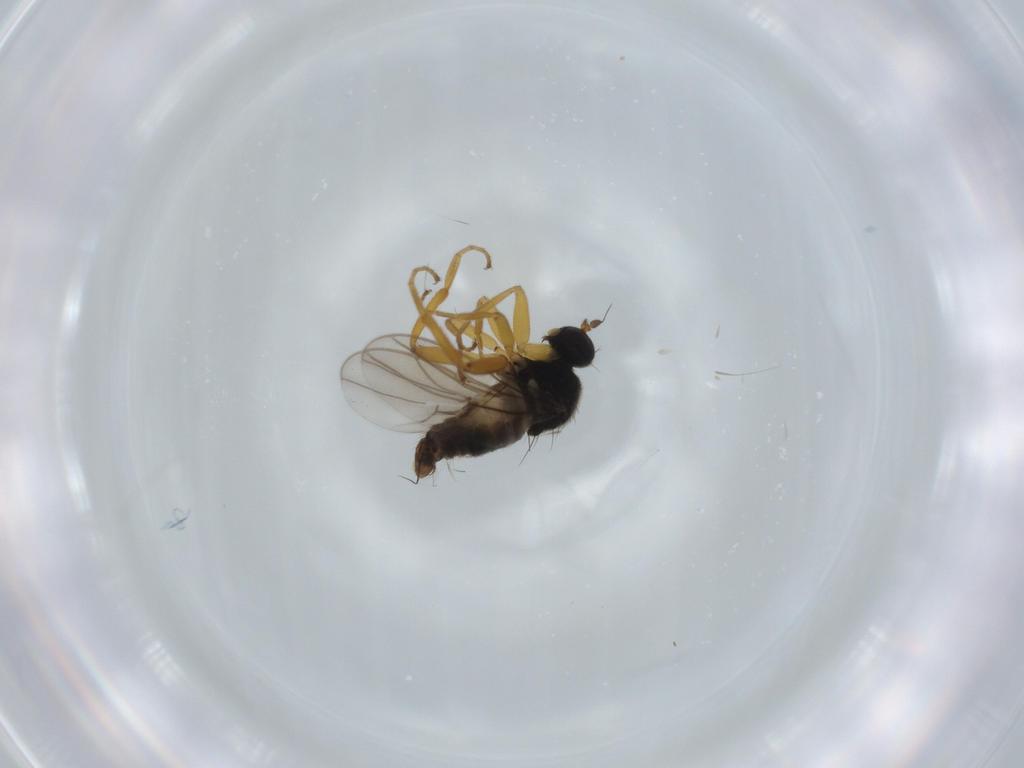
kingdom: Animalia
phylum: Arthropoda
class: Insecta
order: Diptera
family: Hybotidae
